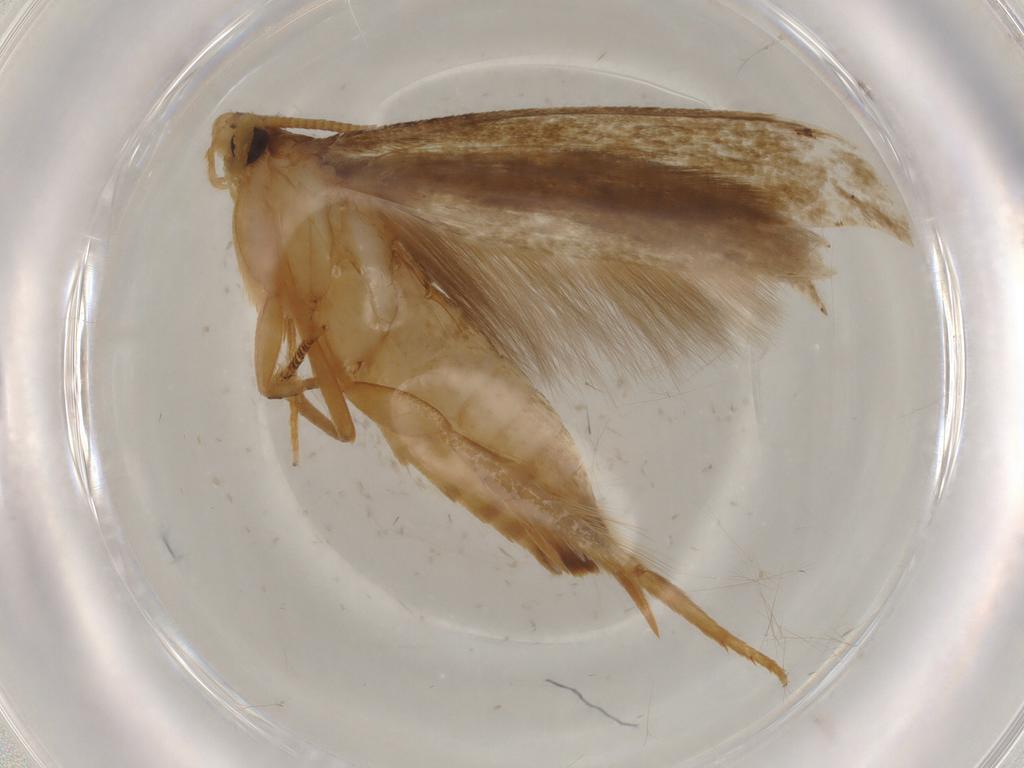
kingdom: Animalia
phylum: Arthropoda
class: Insecta
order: Lepidoptera
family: Tineidae
